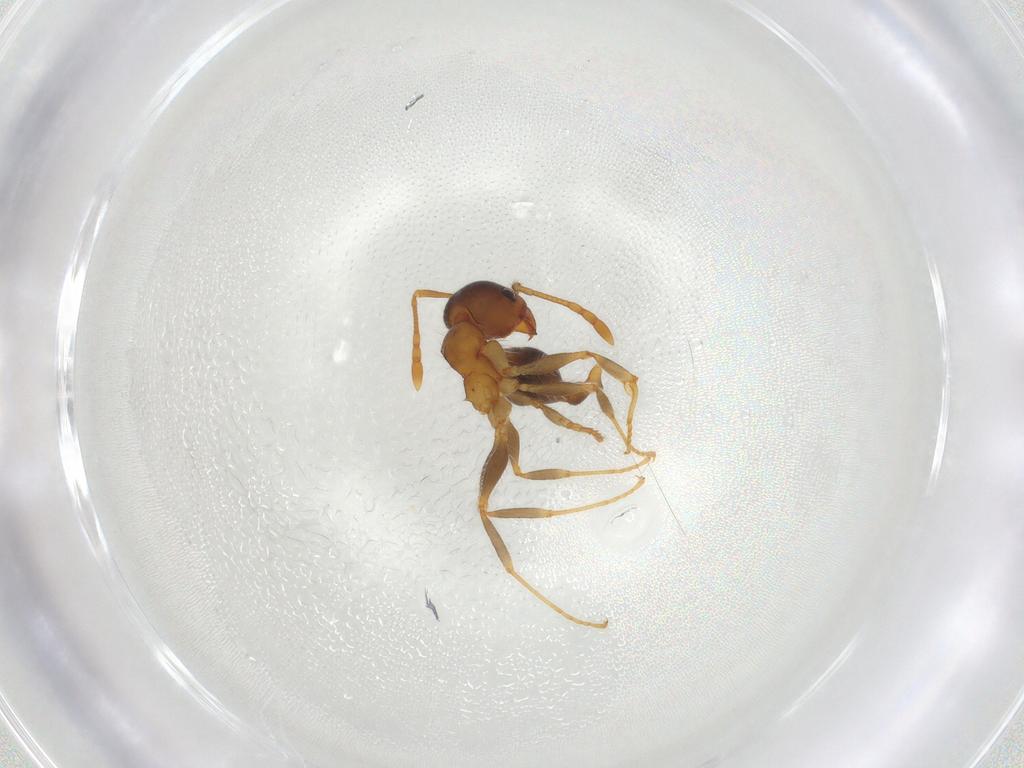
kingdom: Animalia
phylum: Arthropoda
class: Insecta
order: Hymenoptera
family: Formicidae
